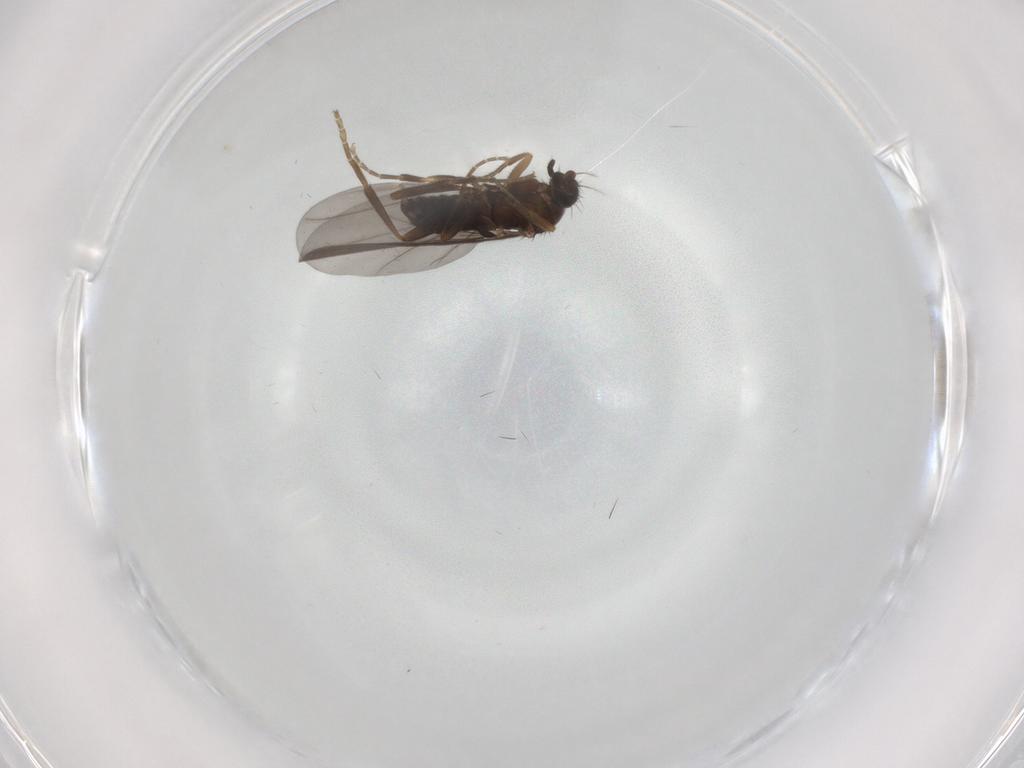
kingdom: Animalia
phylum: Arthropoda
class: Insecta
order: Diptera
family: Phoridae
